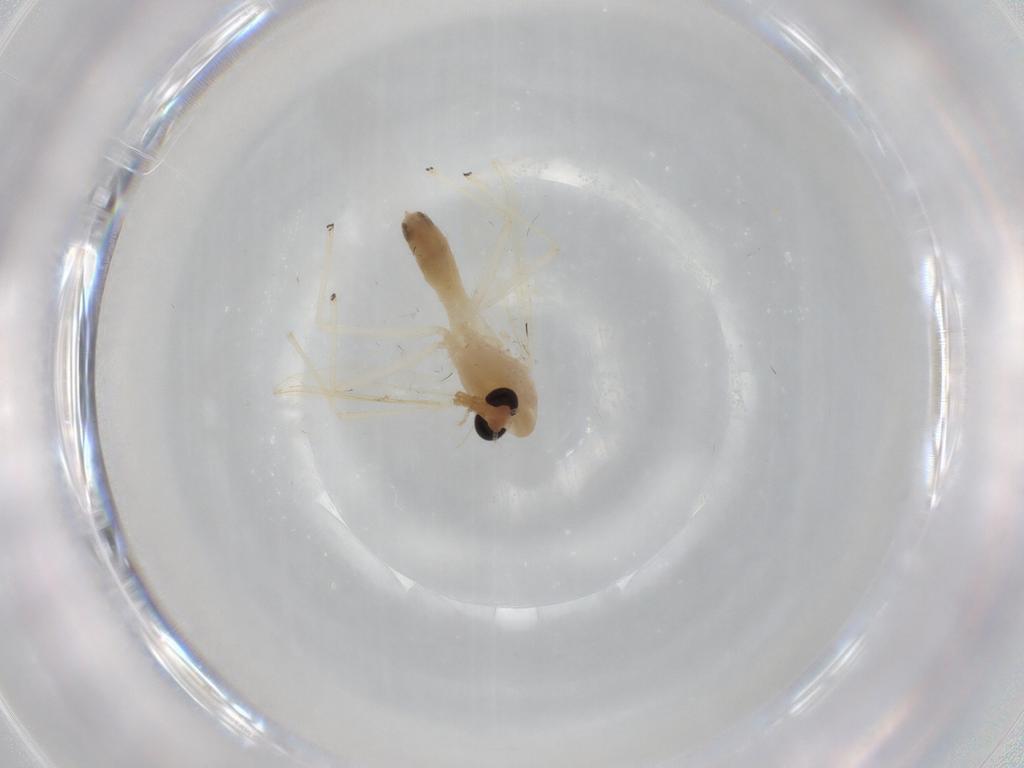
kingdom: Animalia
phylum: Arthropoda
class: Insecta
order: Diptera
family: Chironomidae
